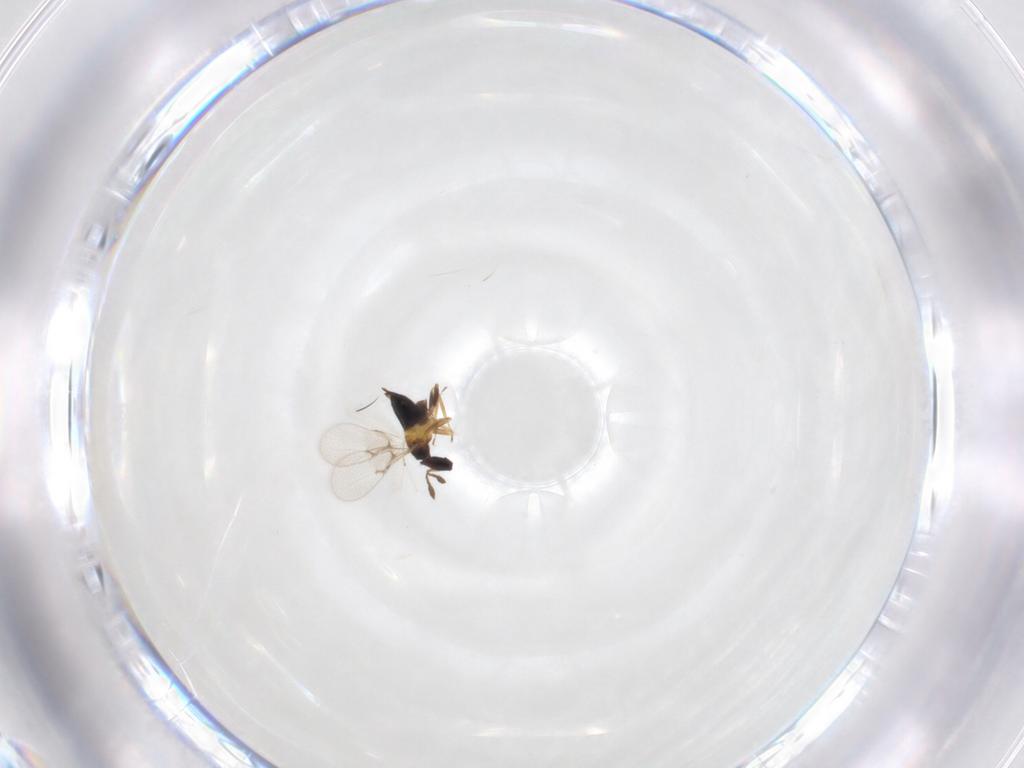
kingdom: Animalia
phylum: Arthropoda
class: Insecta
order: Hymenoptera
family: Trichogrammatidae
